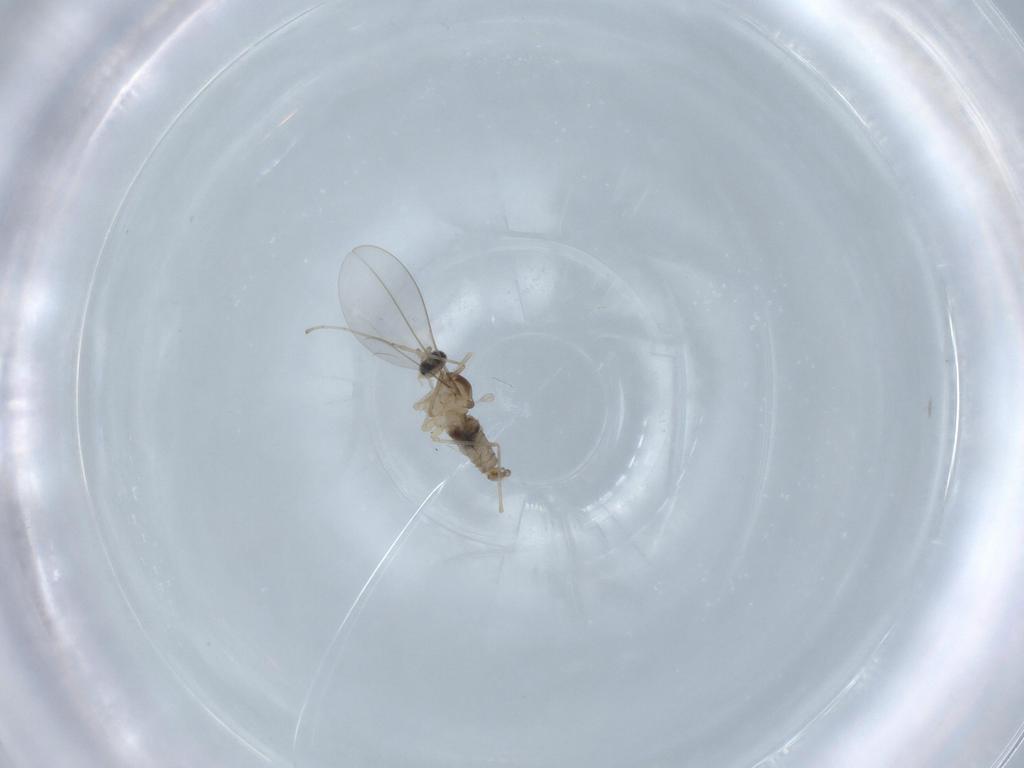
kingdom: Animalia
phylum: Arthropoda
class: Insecta
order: Diptera
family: Cecidomyiidae
